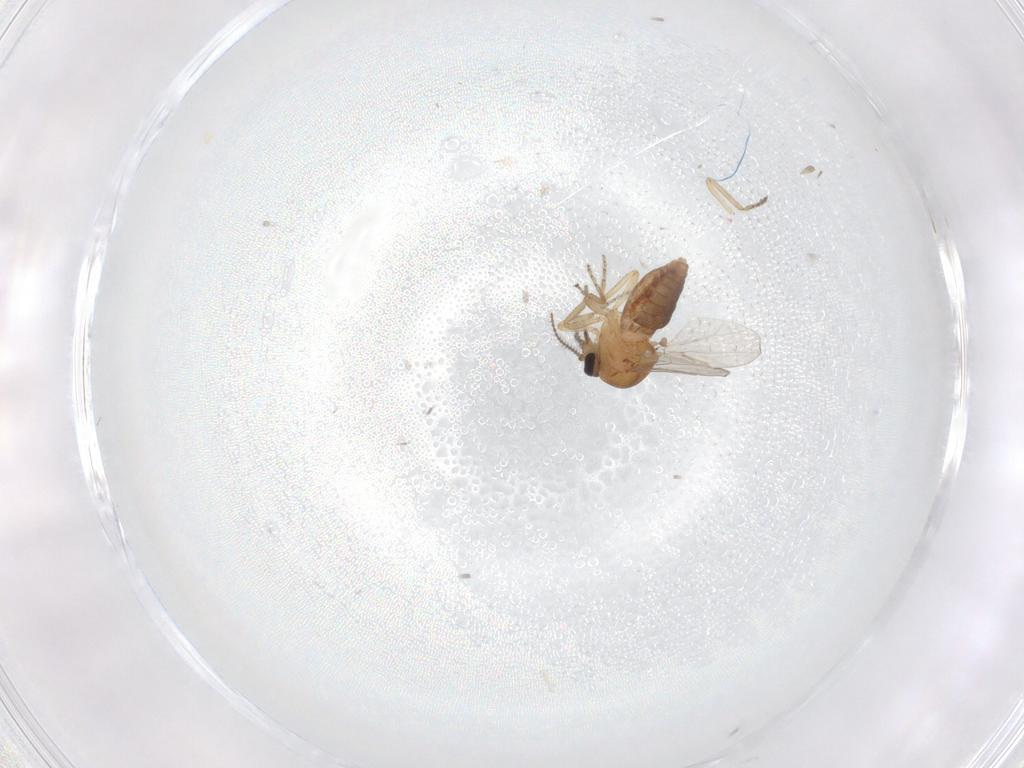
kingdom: Animalia
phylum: Arthropoda
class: Insecta
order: Diptera
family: Ceratopogonidae
